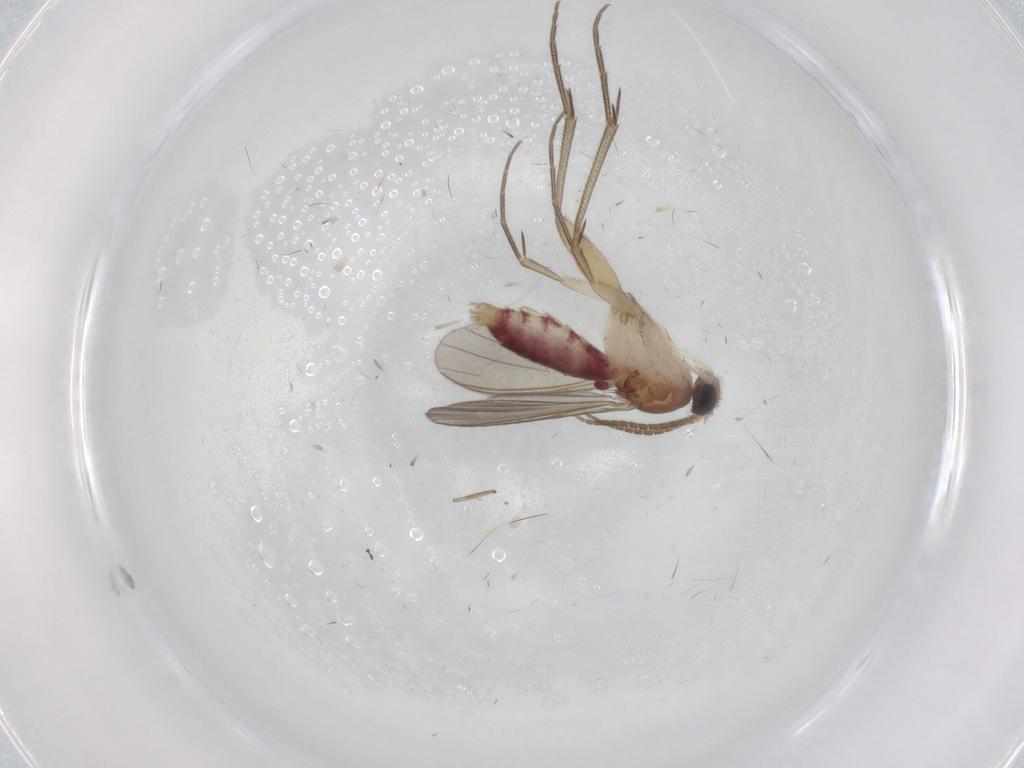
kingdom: Animalia
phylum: Arthropoda
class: Insecta
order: Diptera
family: Mycetophilidae
